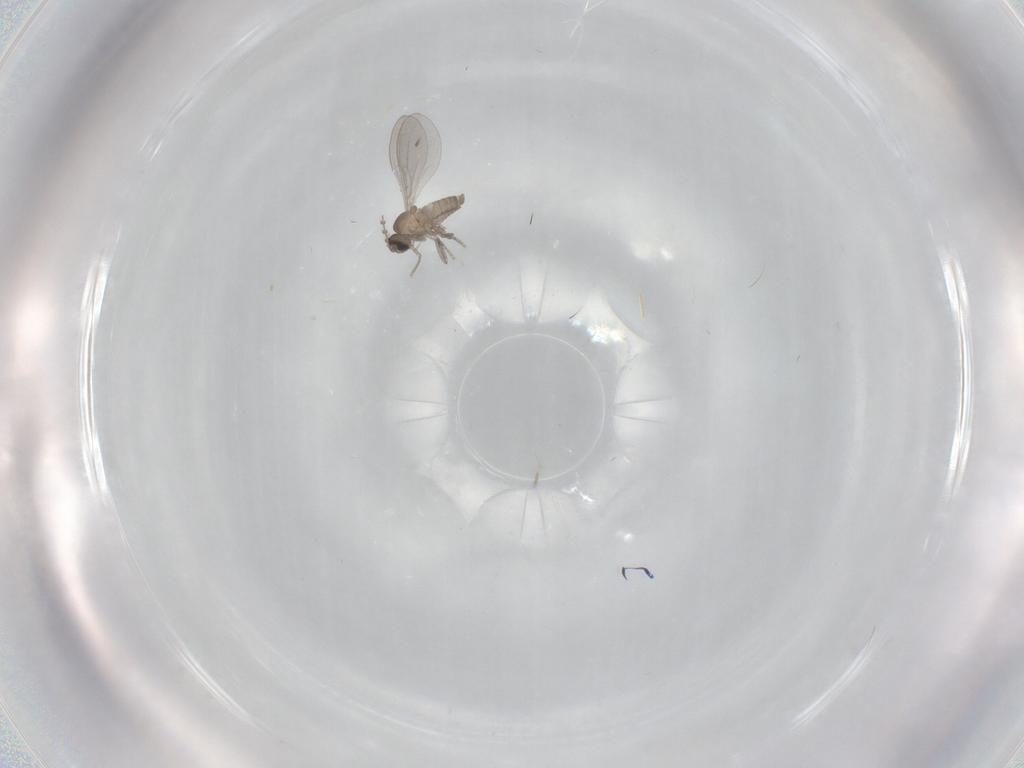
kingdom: Animalia
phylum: Arthropoda
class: Insecta
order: Diptera
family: Cecidomyiidae
